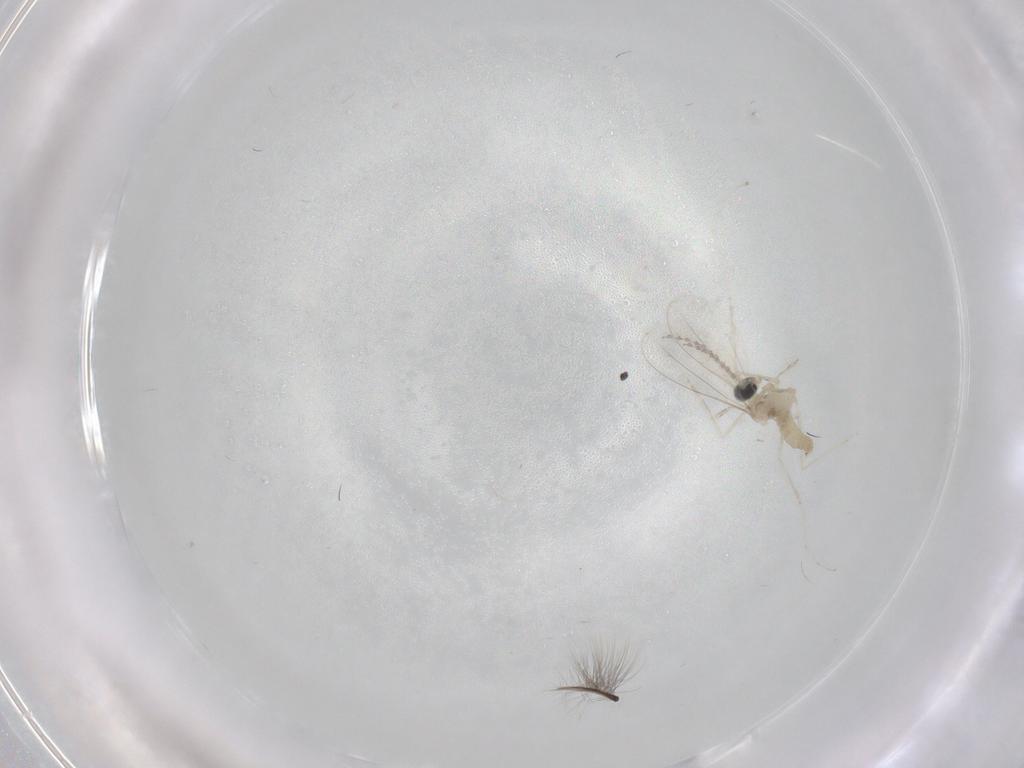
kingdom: Animalia
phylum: Arthropoda
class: Insecta
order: Diptera
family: Cecidomyiidae
